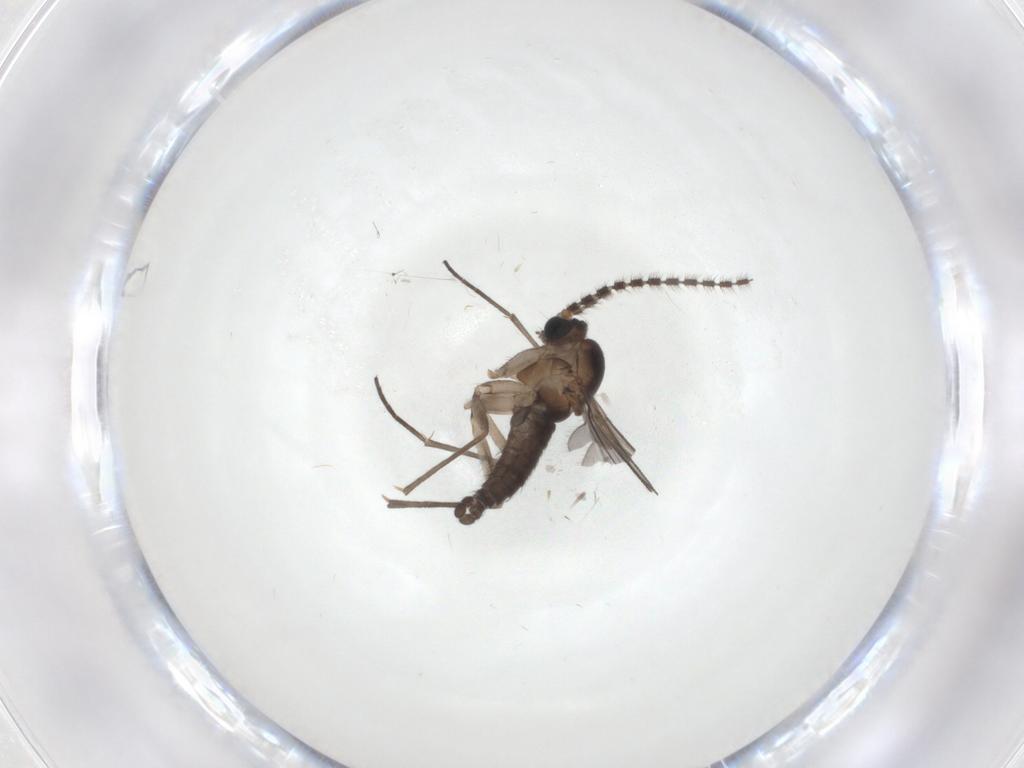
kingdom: Animalia
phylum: Arthropoda
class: Insecta
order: Diptera
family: Sciaridae
